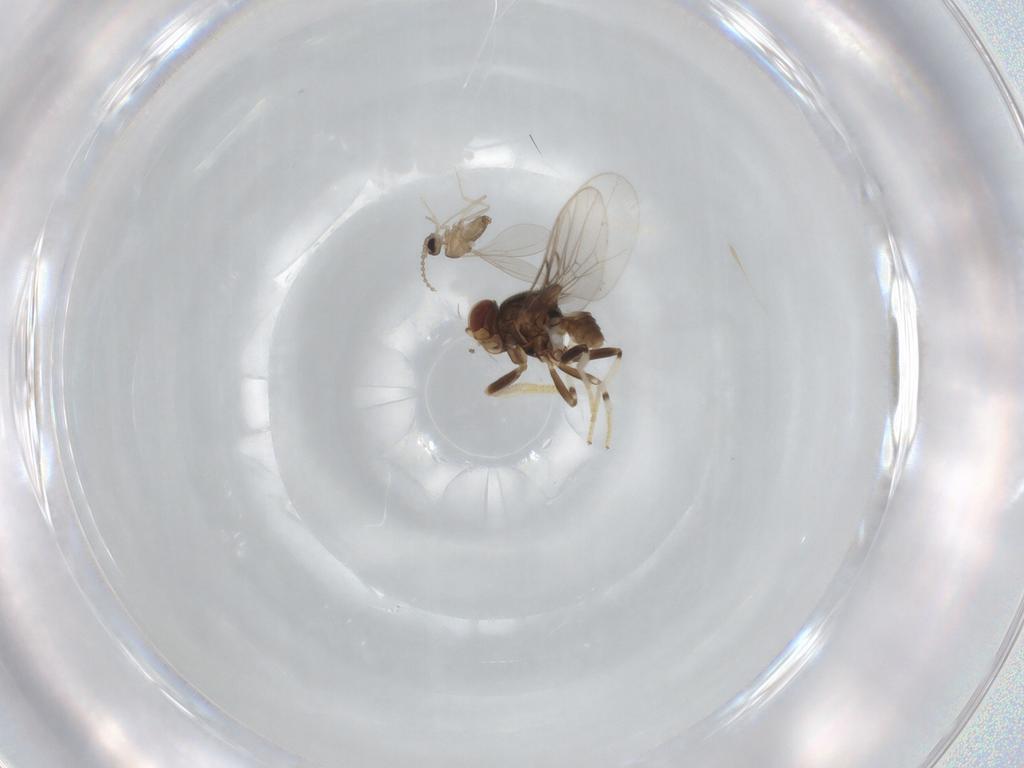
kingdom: Animalia
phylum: Arthropoda
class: Insecta
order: Diptera
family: Cecidomyiidae
